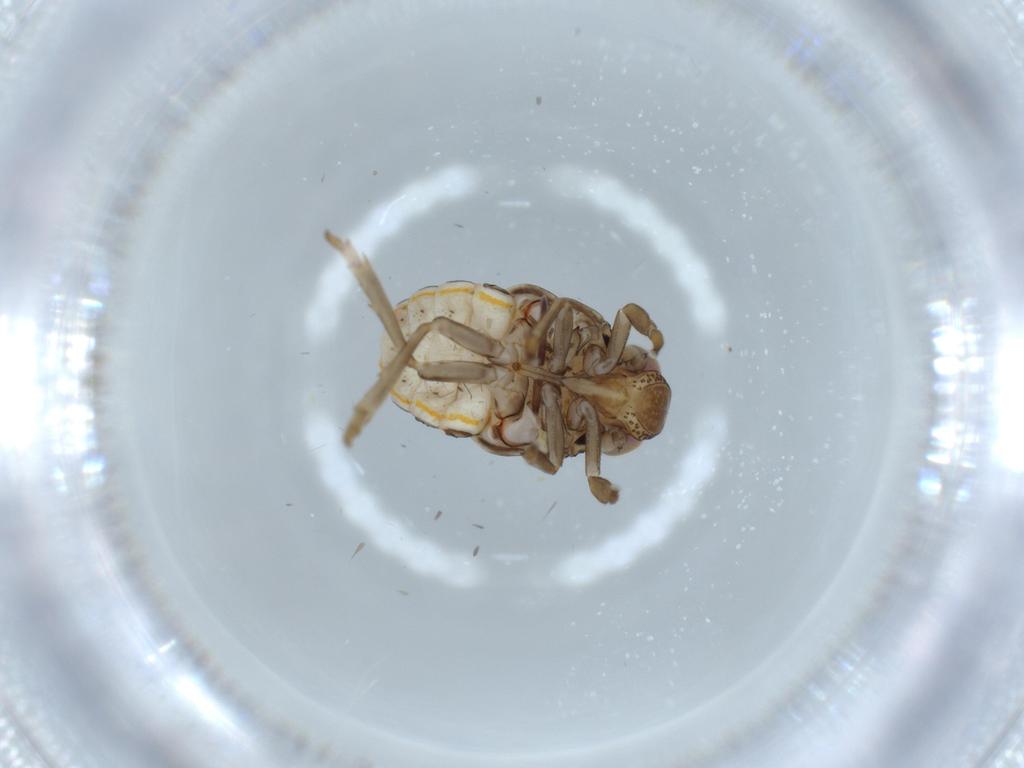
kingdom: Animalia
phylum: Arthropoda
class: Insecta
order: Hemiptera
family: Issidae
